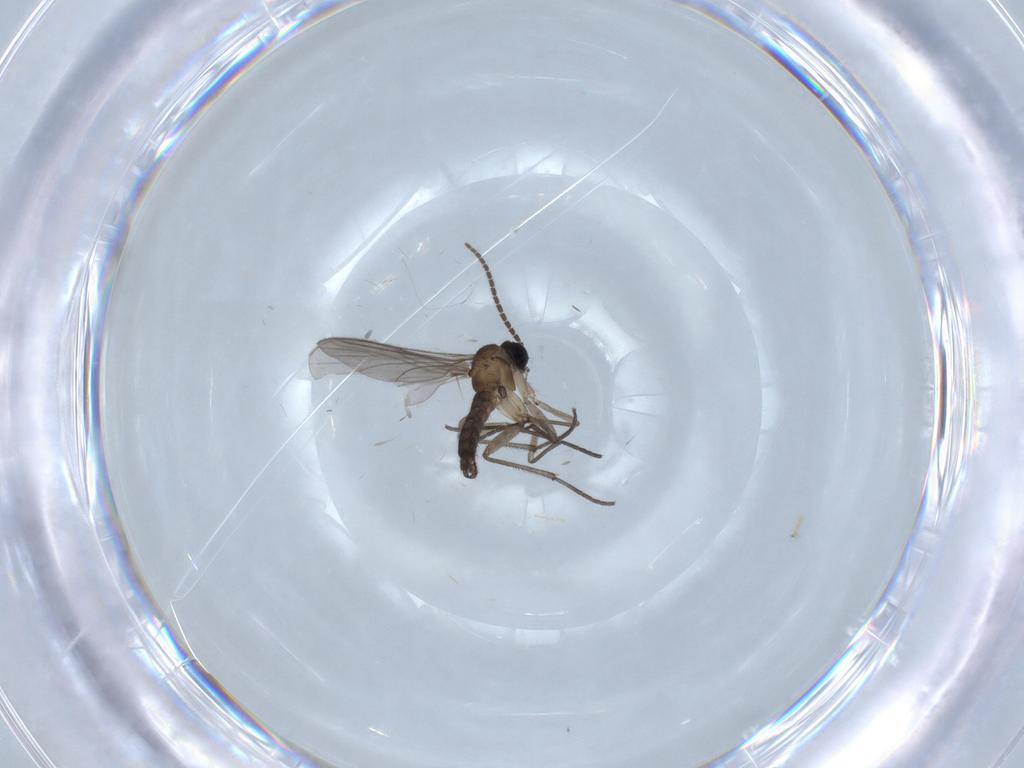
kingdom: Animalia
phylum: Arthropoda
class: Insecta
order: Diptera
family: Sciaridae
